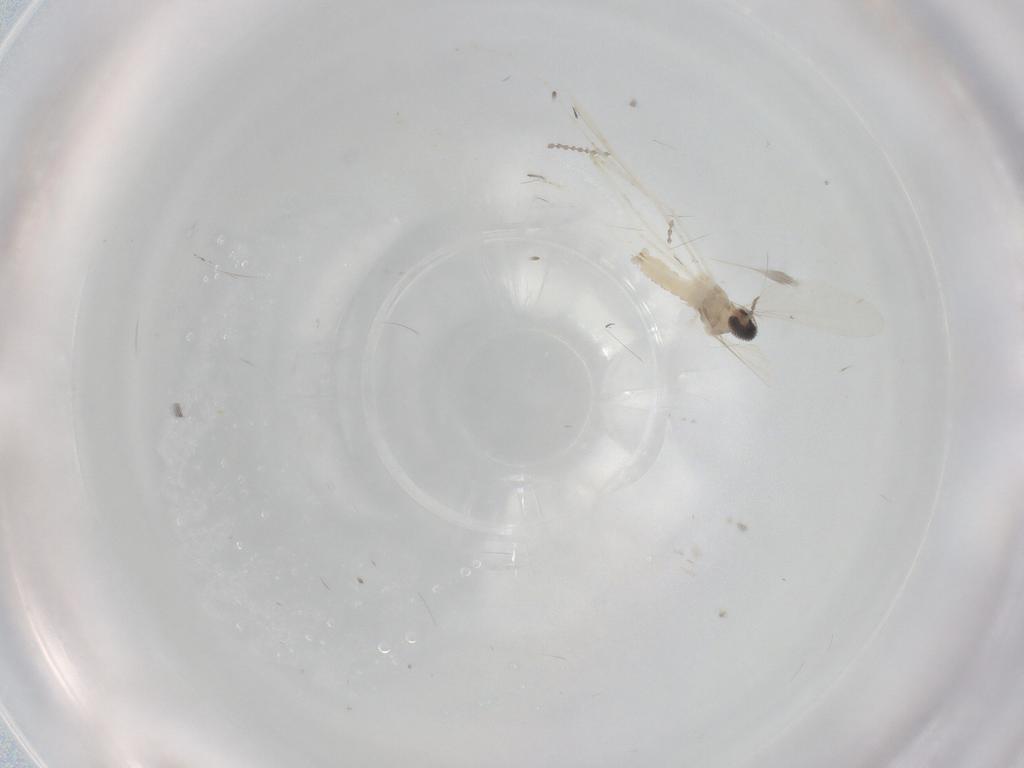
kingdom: Animalia
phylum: Arthropoda
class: Insecta
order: Diptera
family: Cecidomyiidae
